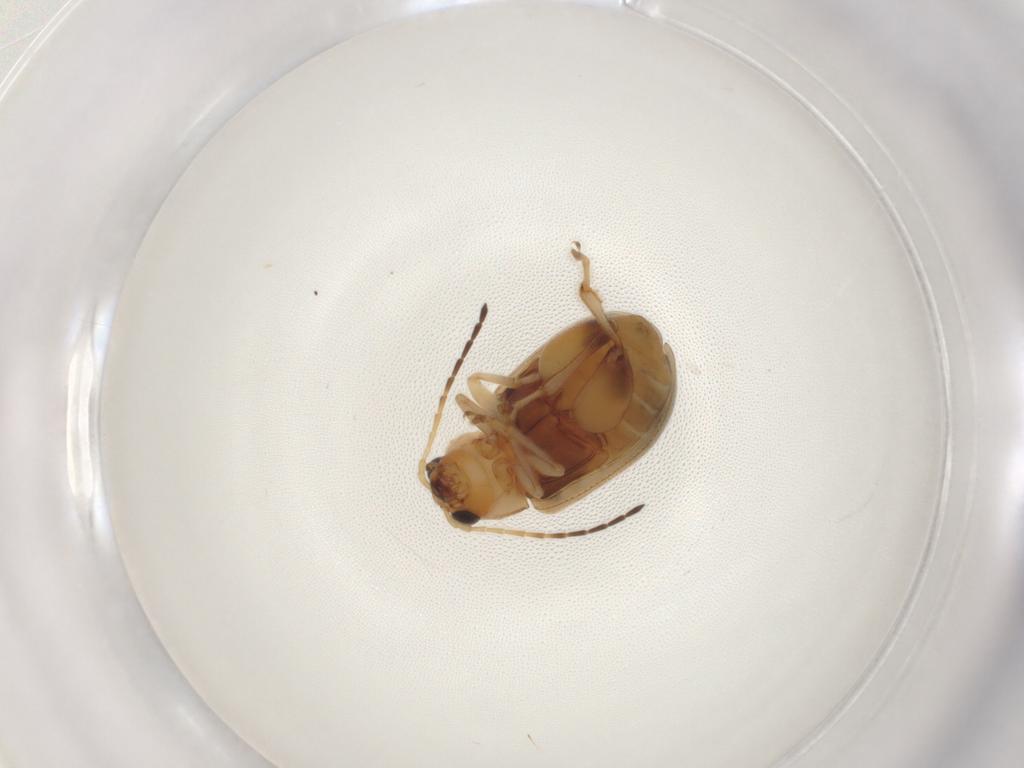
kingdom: Animalia
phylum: Arthropoda
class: Insecta
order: Coleoptera
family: Chrysomelidae
